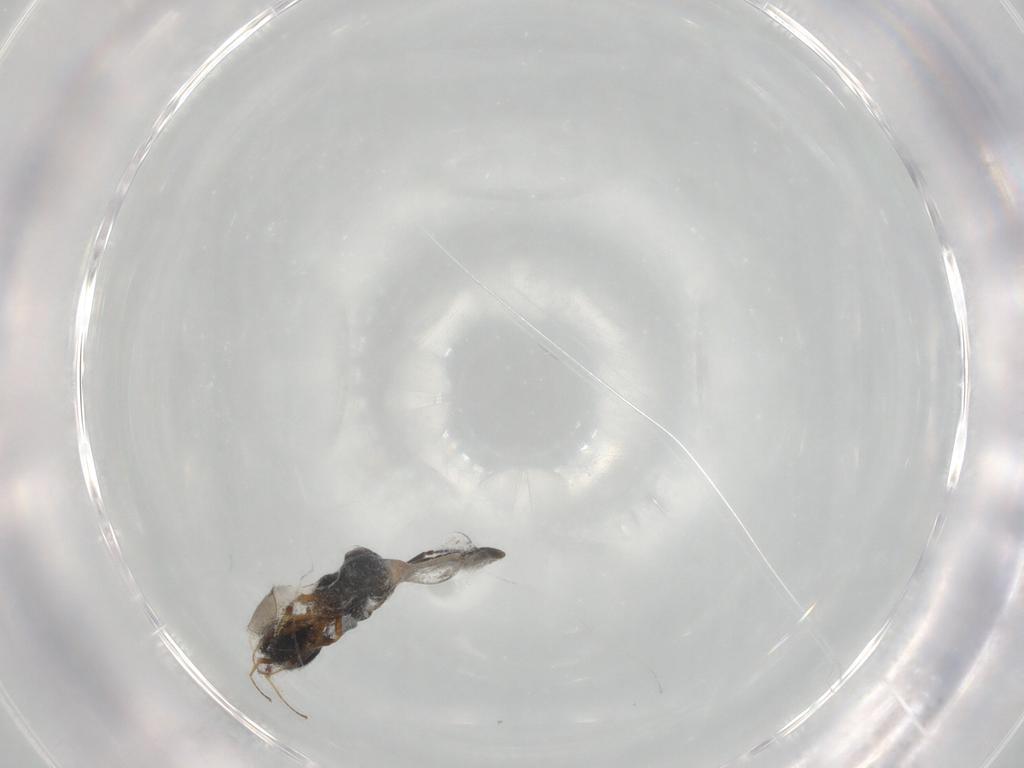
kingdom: Animalia
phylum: Arthropoda
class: Insecta
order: Hymenoptera
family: Scelionidae
